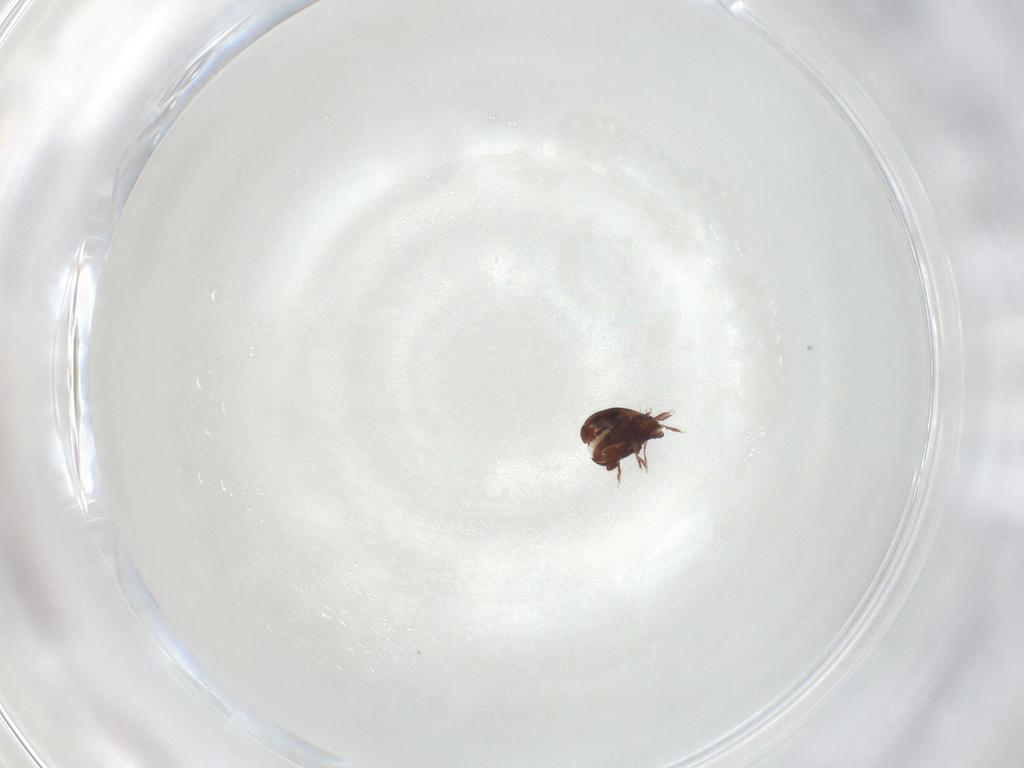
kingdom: Animalia
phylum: Arthropoda
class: Arachnida
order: Sarcoptiformes
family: Humerobatidae
